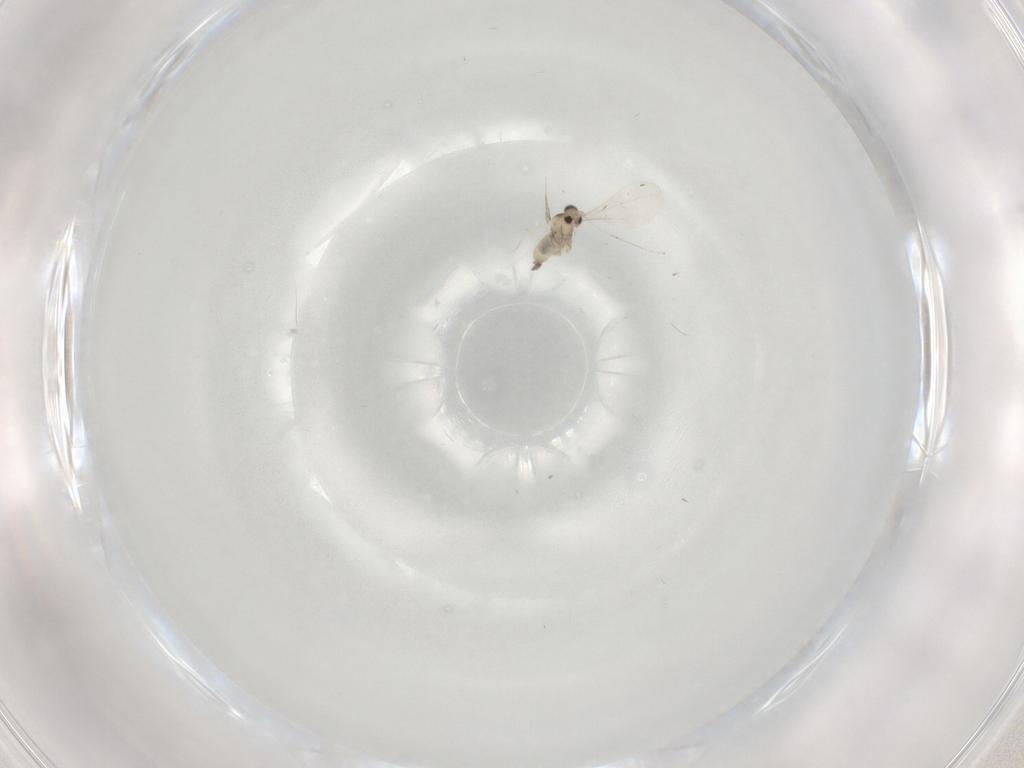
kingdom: Animalia
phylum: Arthropoda
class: Insecta
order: Diptera
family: Cecidomyiidae
